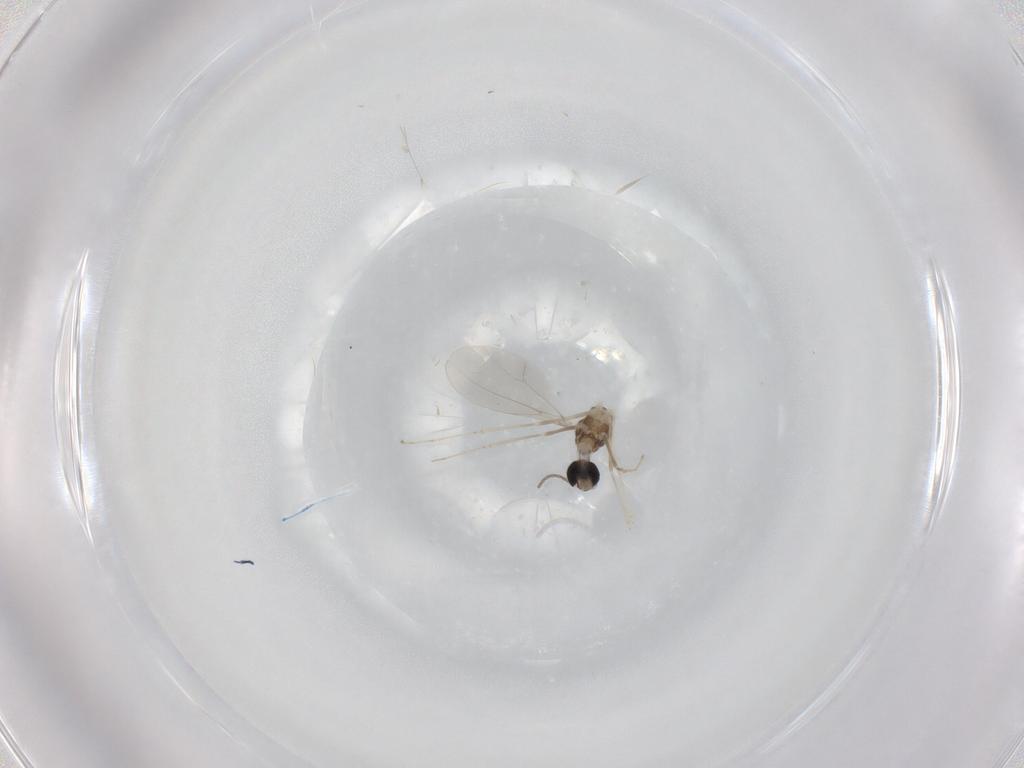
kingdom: Animalia
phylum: Arthropoda
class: Insecta
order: Diptera
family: Cecidomyiidae
